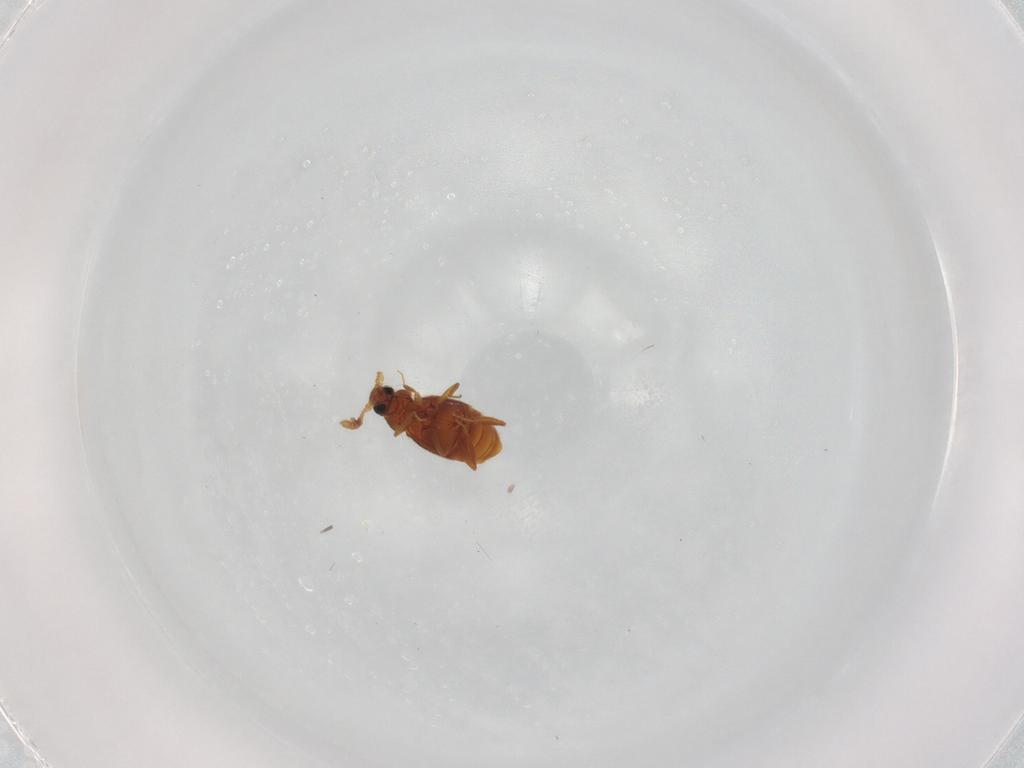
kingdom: Animalia
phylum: Arthropoda
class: Insecta
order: Coleoptera
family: Staphylinidae
